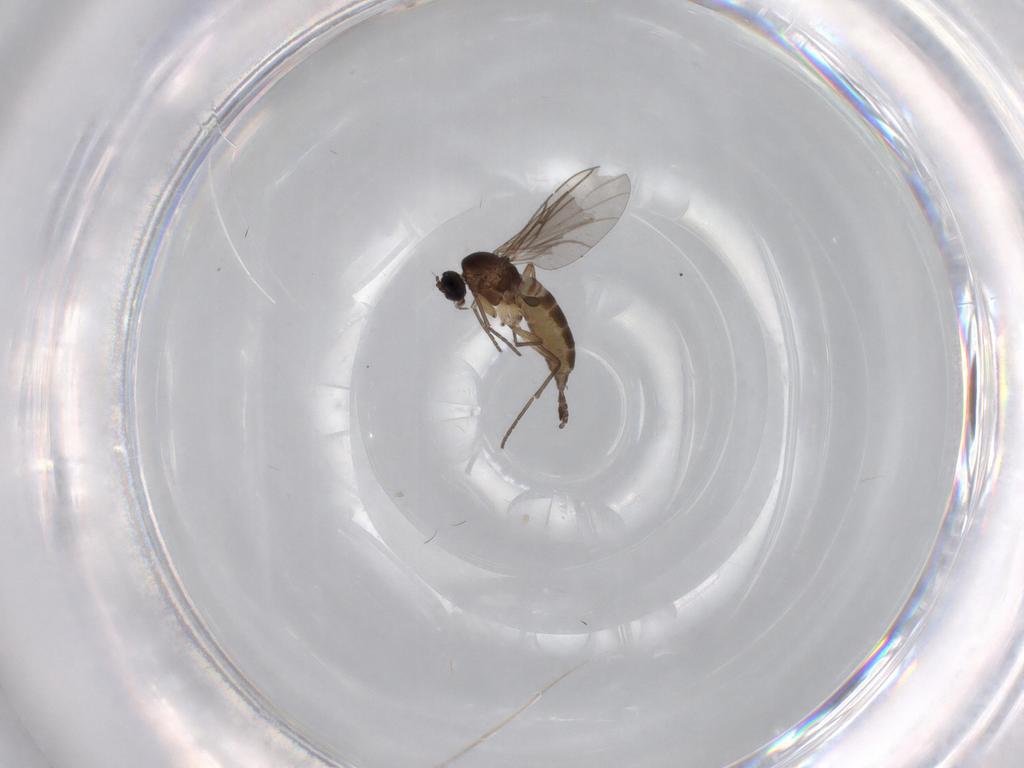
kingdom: Animalia
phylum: Arthropoda
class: Insecta
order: Diptera
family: Sciaridae
